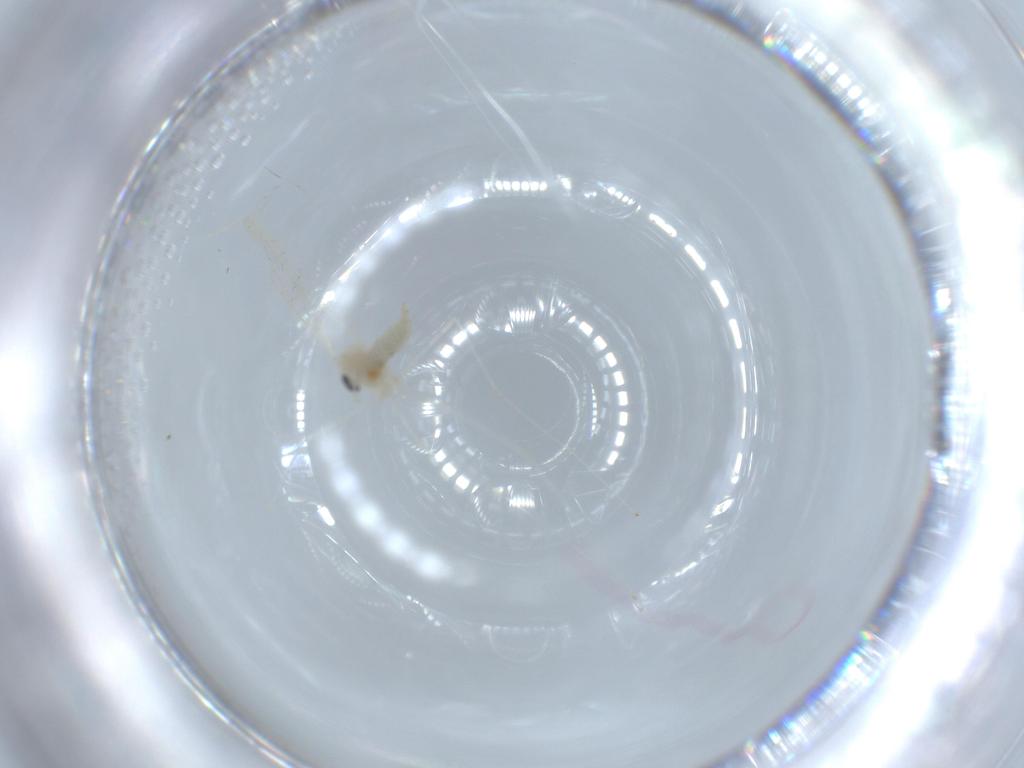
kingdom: Animalia
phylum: Arthropoda
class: Insecta
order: Diptera
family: Cecidomyiidae
